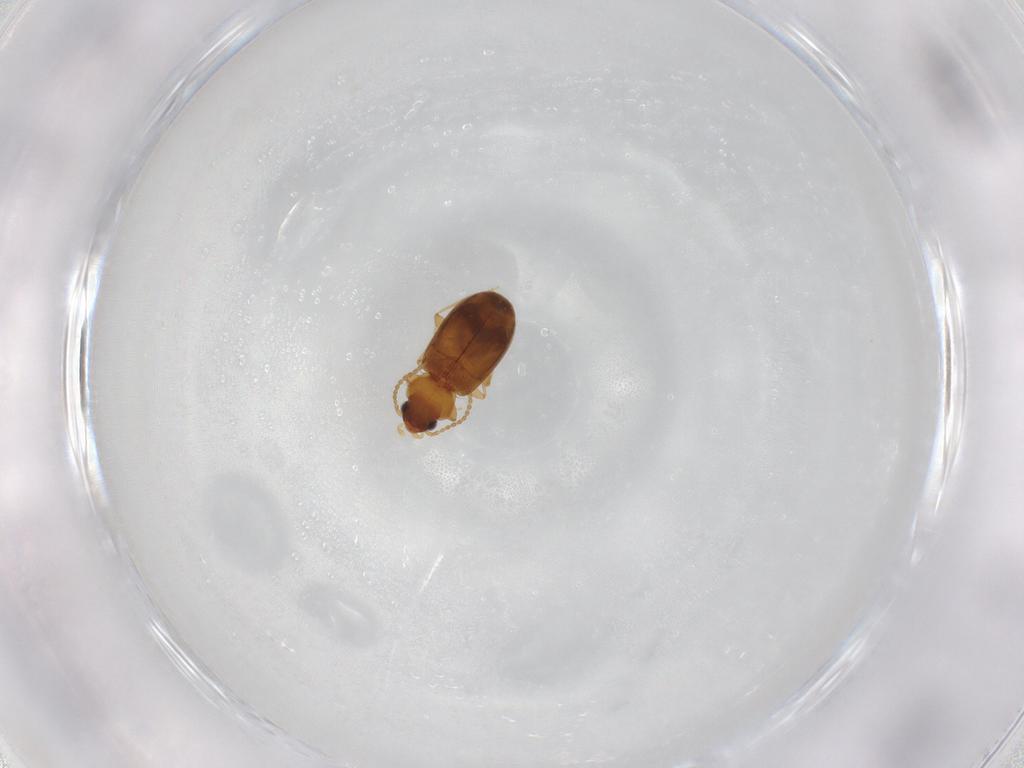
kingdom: Animalia
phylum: Arthropoda
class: Insecta
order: Coleoptera
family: Carabidae
